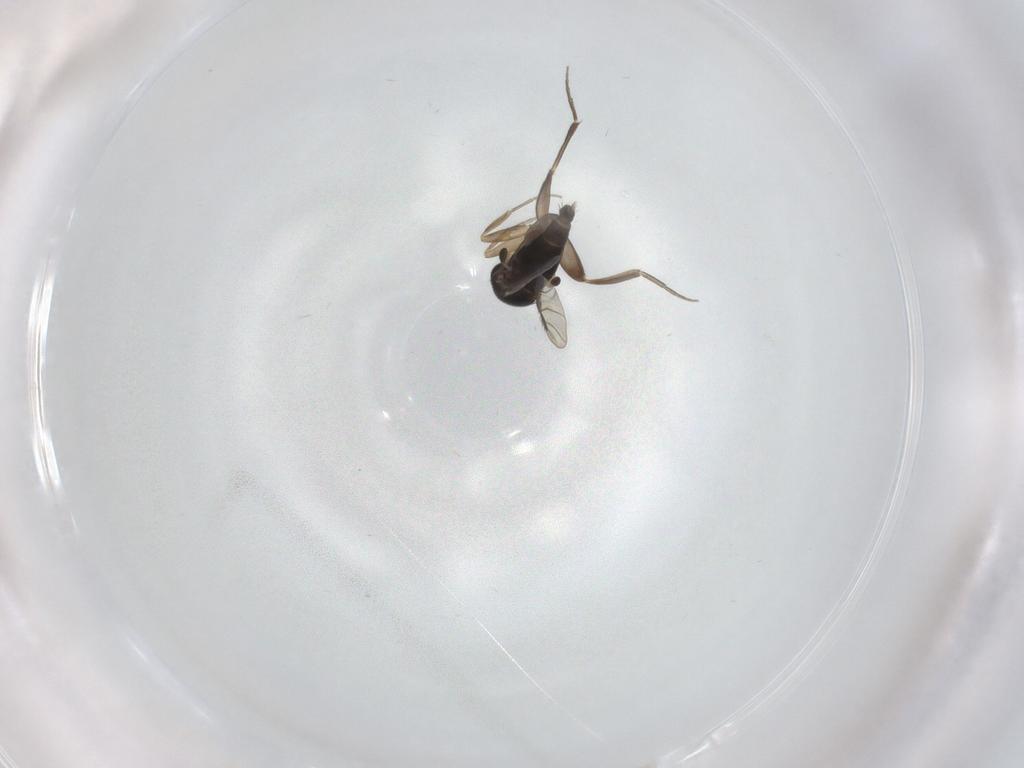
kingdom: Animalia
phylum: Arthropoda
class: Insecta
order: Diptera
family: Phoridae
